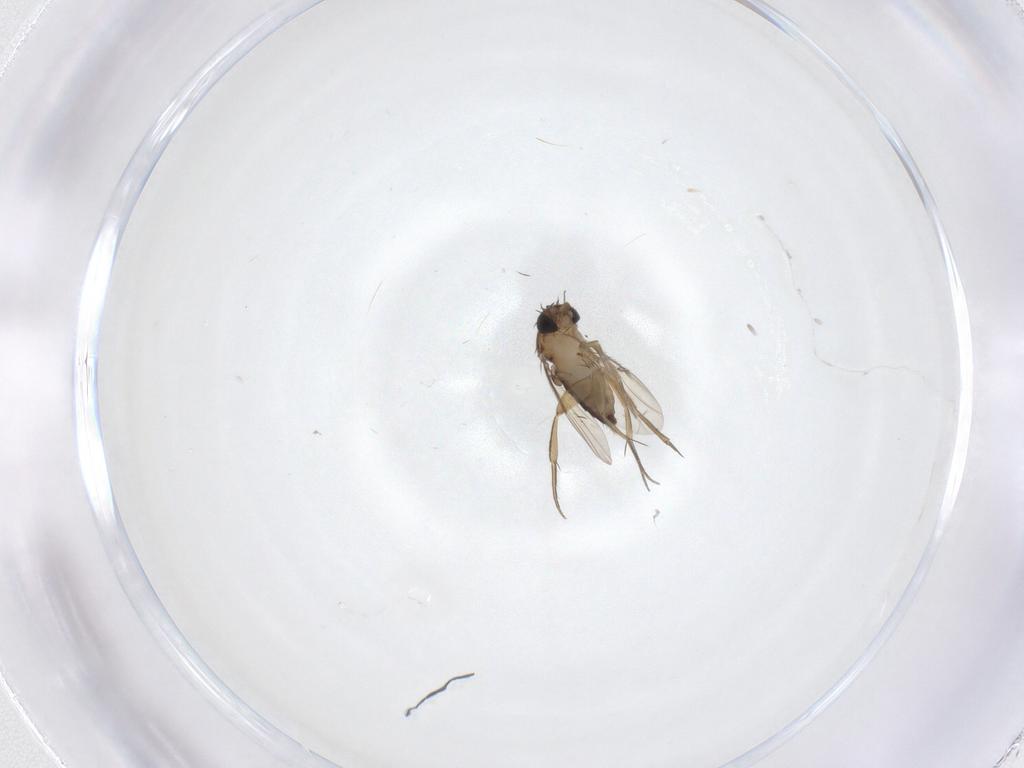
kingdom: Animalia
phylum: Arthropoda
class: Insecta
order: Diptera
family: Phoridae
